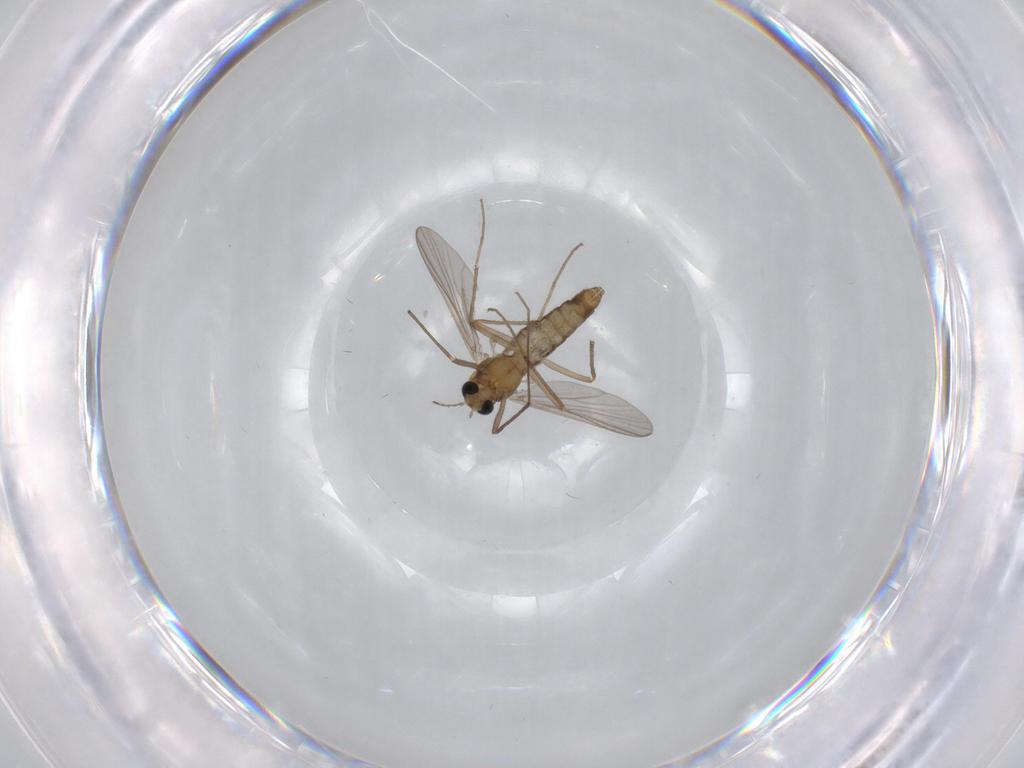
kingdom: Animalia
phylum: Arthropoda
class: Insecta
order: Diptera
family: Chironomidae
